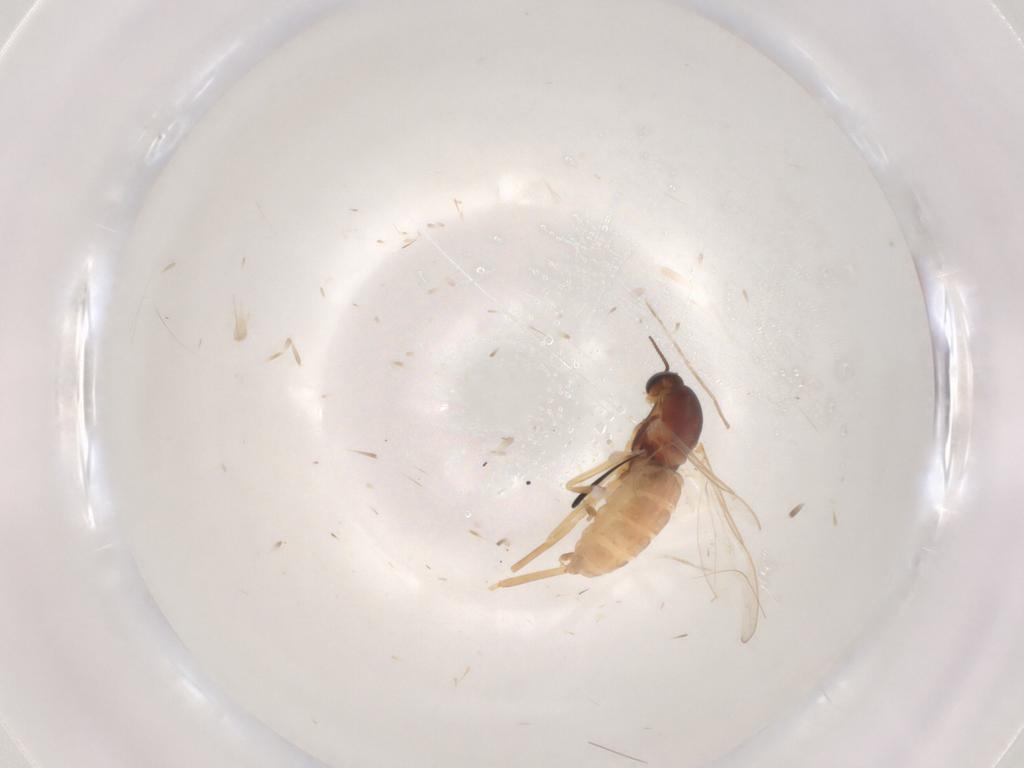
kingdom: Animalia
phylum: Arthropoda
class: Insecta
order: Diptera
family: Cecidomyiidae
